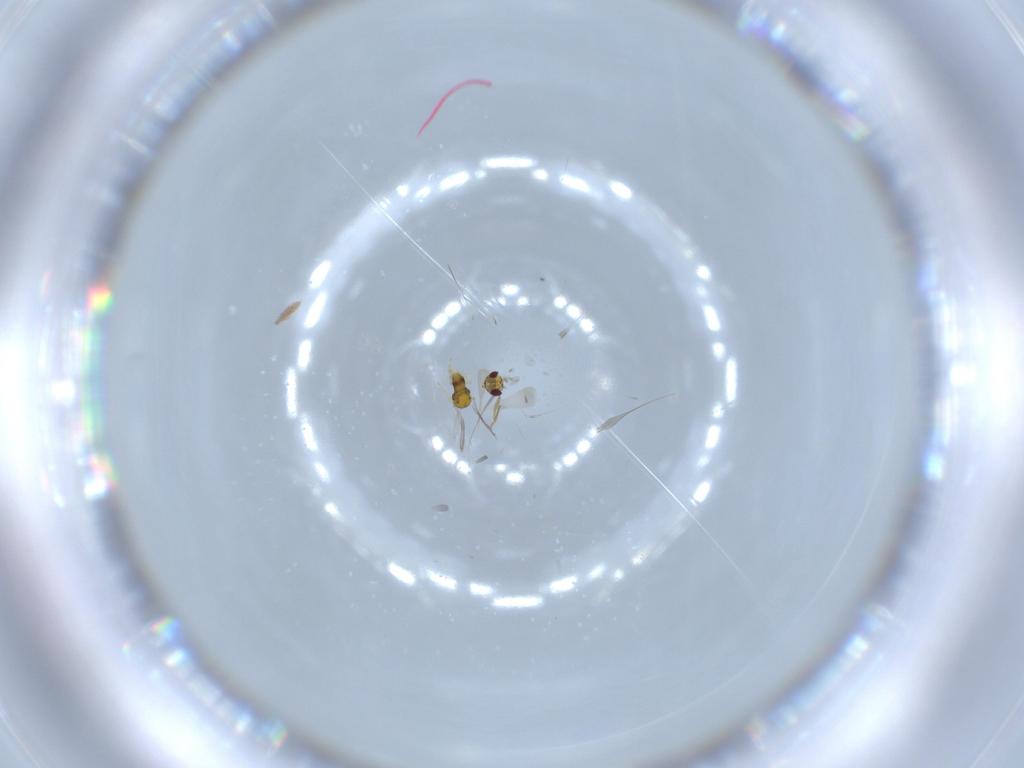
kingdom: Animalia
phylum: Arthropoda
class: Insecta
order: Hymenoptera
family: Aphelinidae
